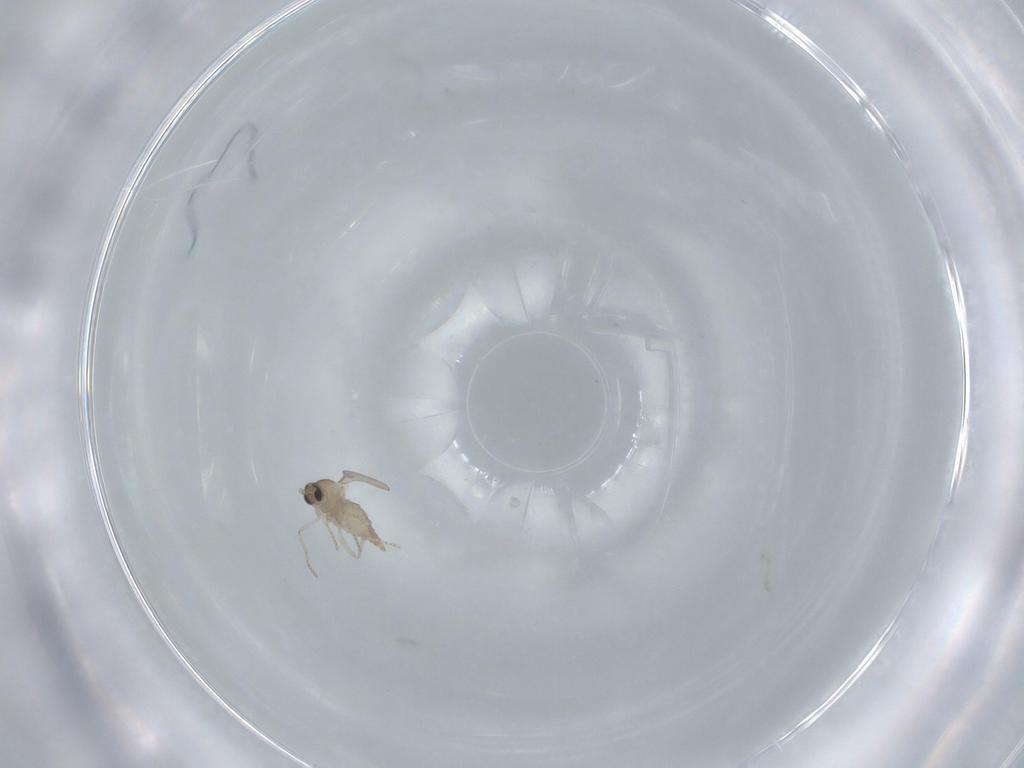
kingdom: Animalia
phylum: Arthropoda
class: Insecta
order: Diptera
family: Cecidomyiidae
